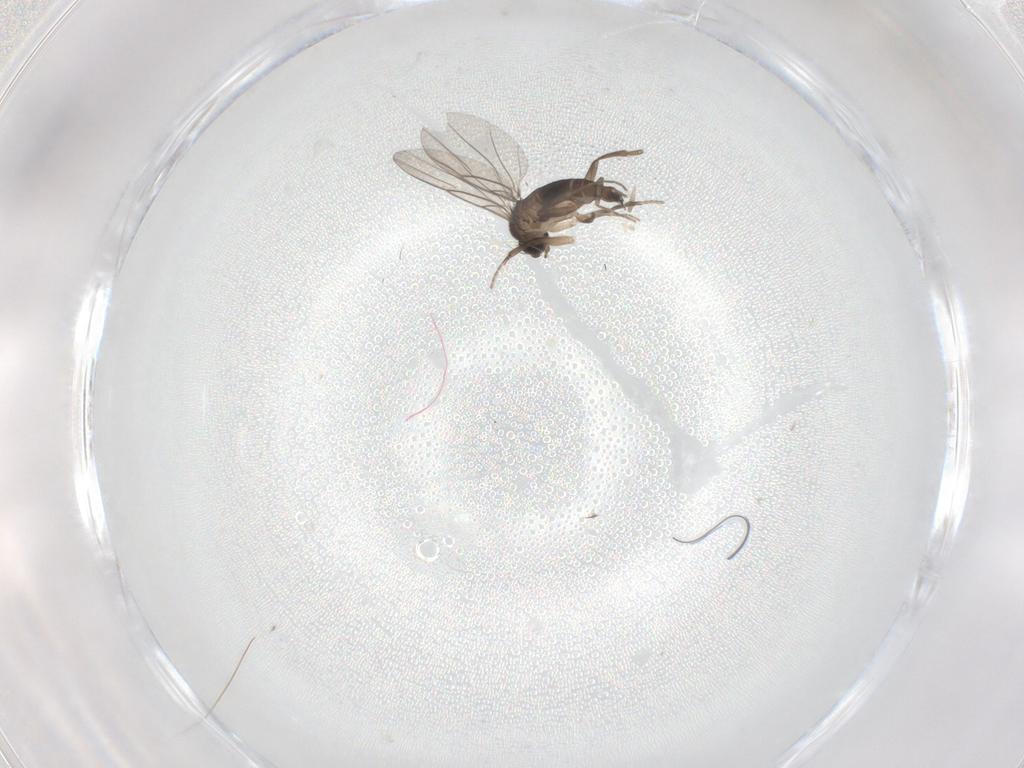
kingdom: Animalia
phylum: Arthropoda
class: Insecta
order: Diptera
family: Phoridae
